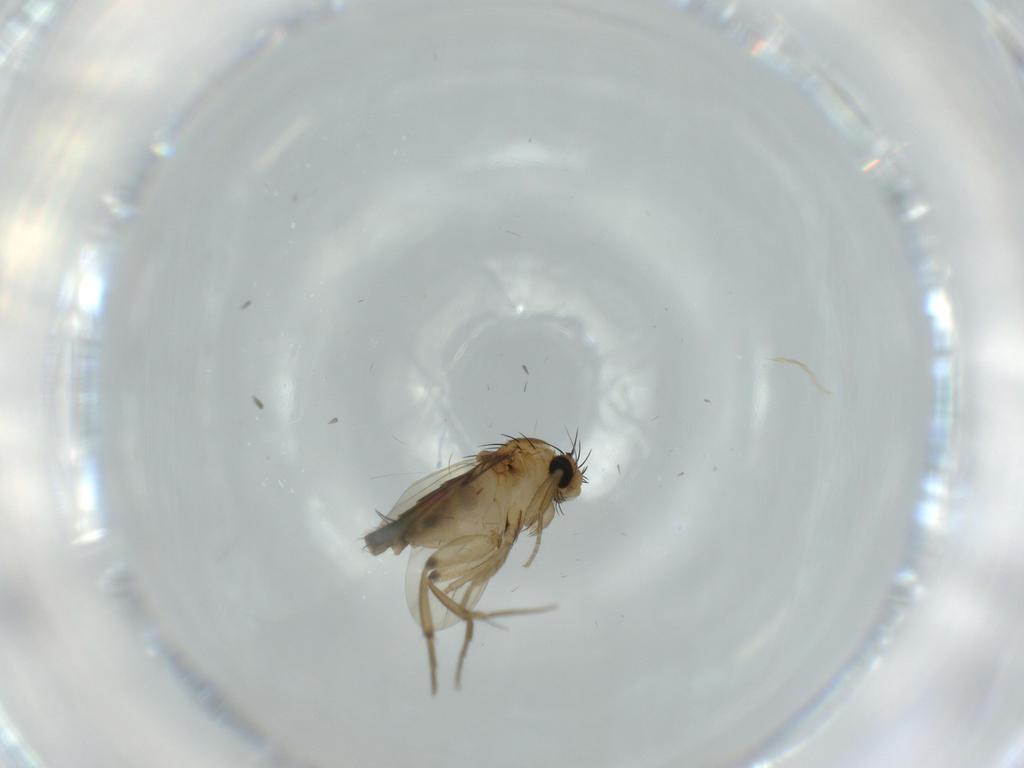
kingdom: Animalia
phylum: Arthropoda
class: Insecta
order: Diptera
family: Phoridae
